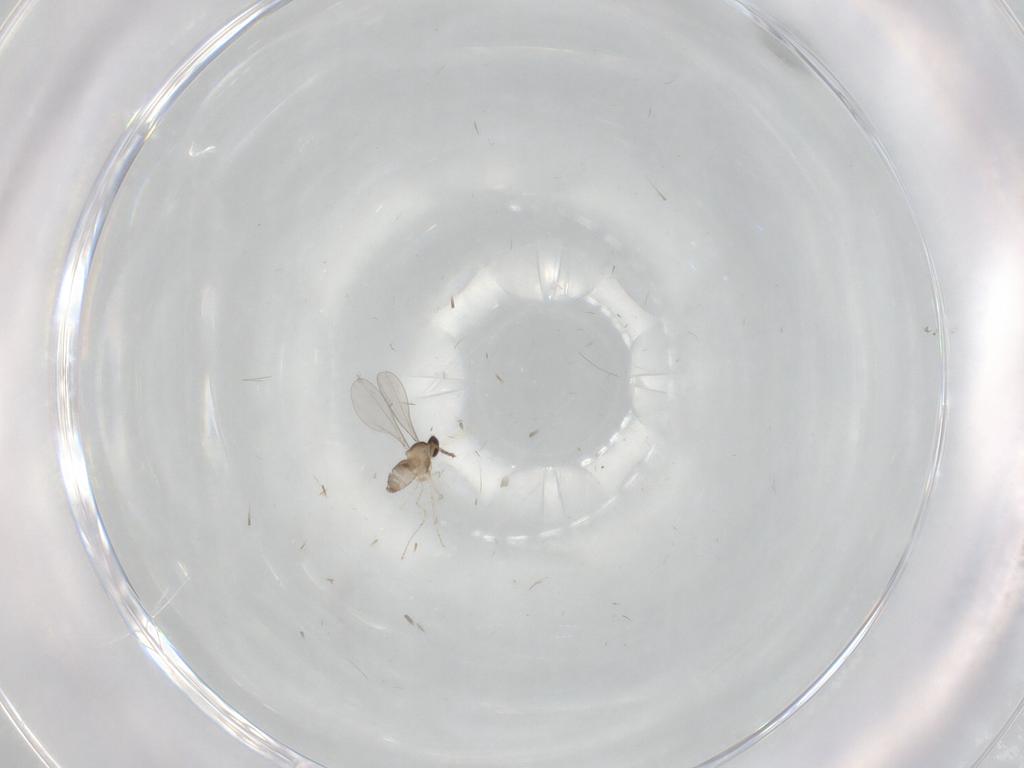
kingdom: Animalia
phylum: Arthropoda
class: Insecta
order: Diptera
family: Cecidomyiidae
